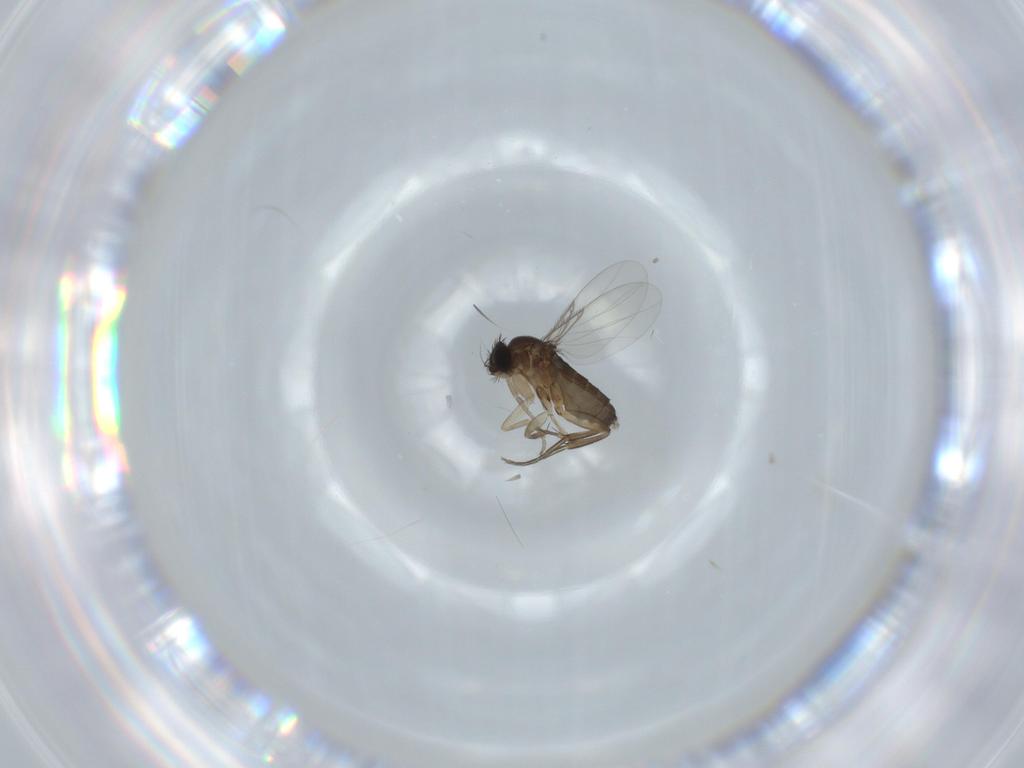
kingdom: Animalia
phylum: Arthropoda
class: Insecta
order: Diptera
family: Phoridae
